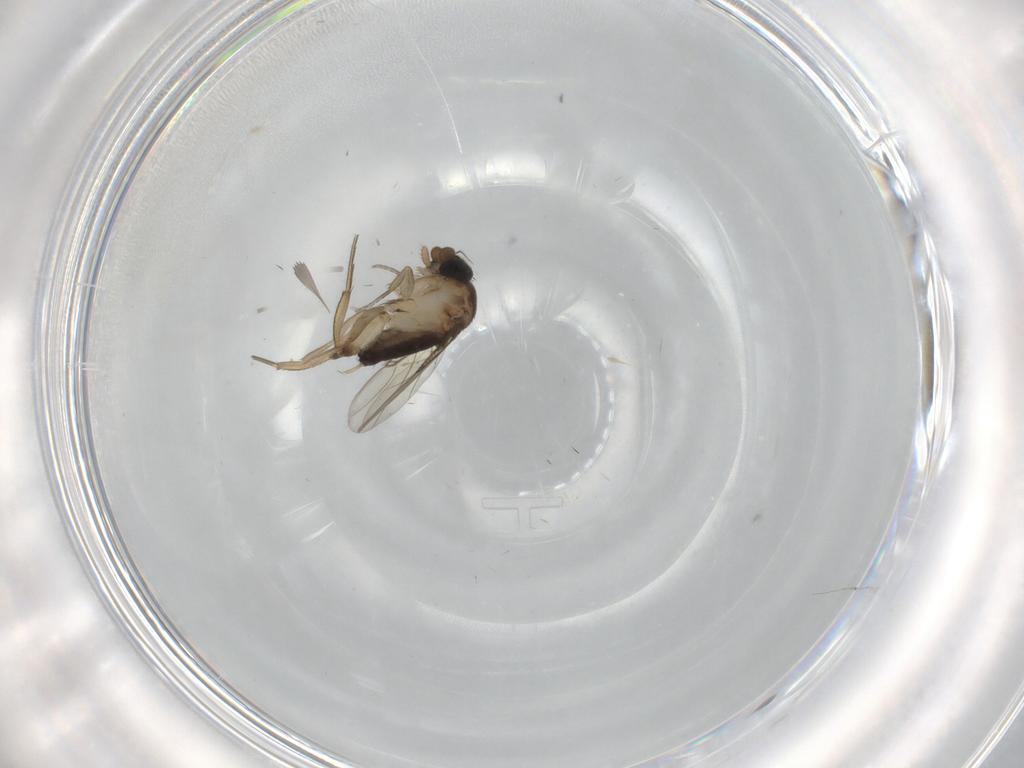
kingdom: Animalia
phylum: Arthropoda
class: Insecta
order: Diptera
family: Phoridae
